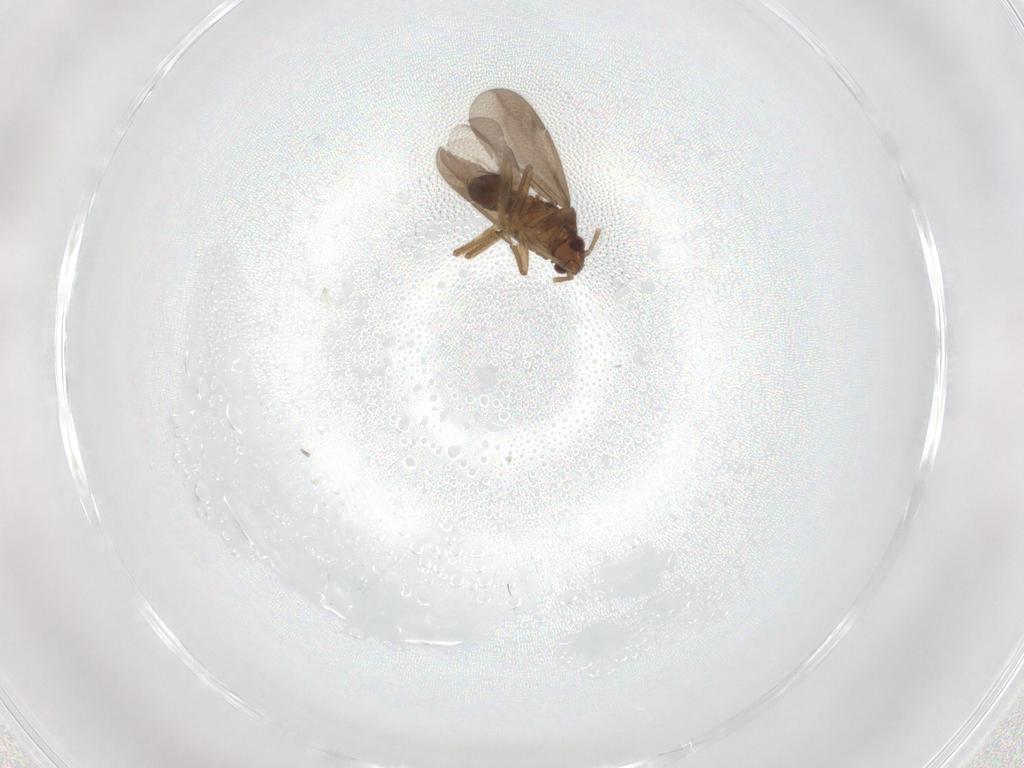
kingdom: Animalia
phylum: Arthropoda
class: Insecta
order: Hemiptera
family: Ceratocombidae
